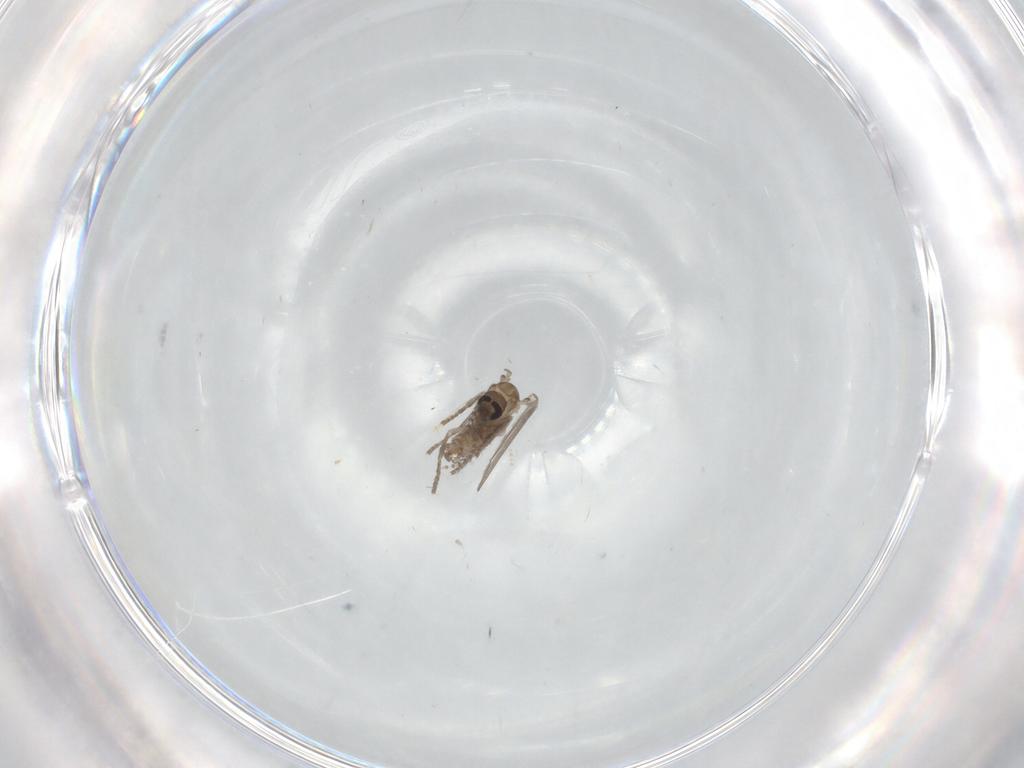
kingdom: Animalia
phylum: Arthropoda
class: Insecta
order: Diptera
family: Cecidomyiidae
